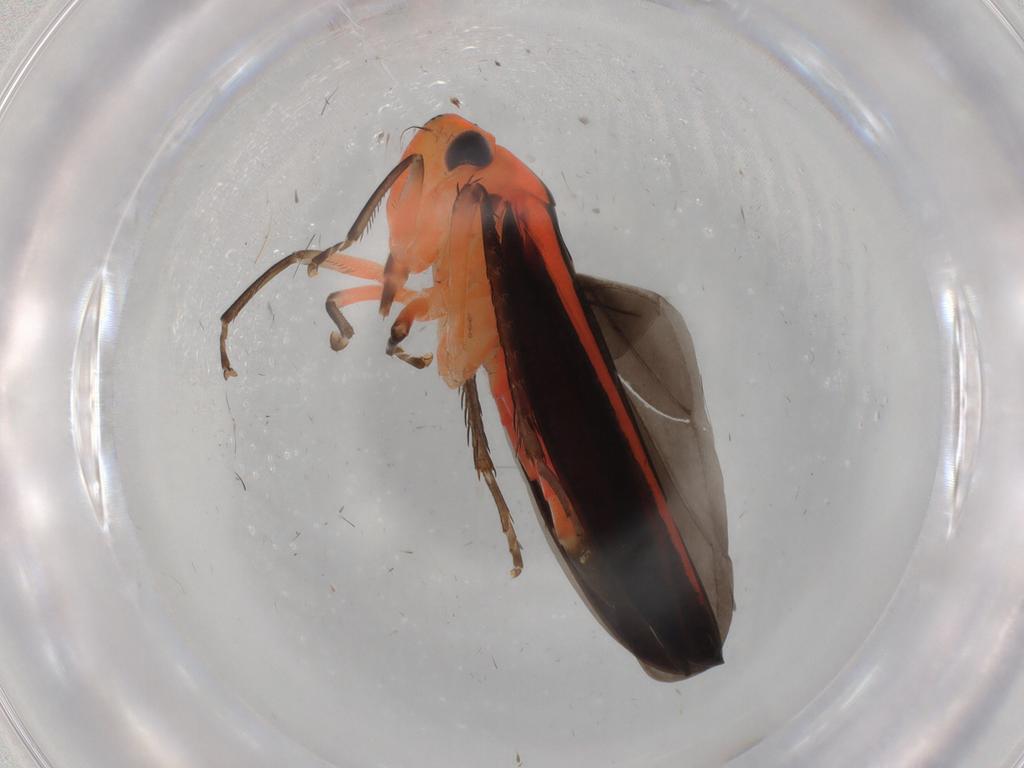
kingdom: Animalia
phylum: Arthropoda
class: Insecta
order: Hemiptera
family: Cicadellidae
